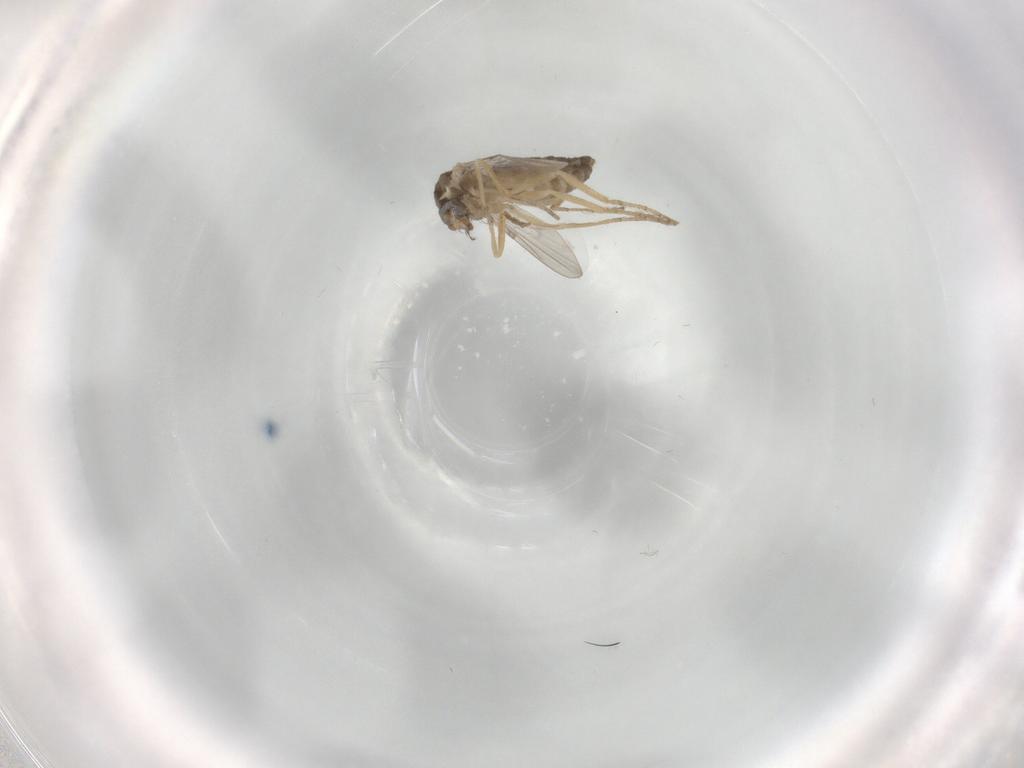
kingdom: Animalia
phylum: Arthropoda
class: Insecta
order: Diptera
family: Ceratopogonidae
